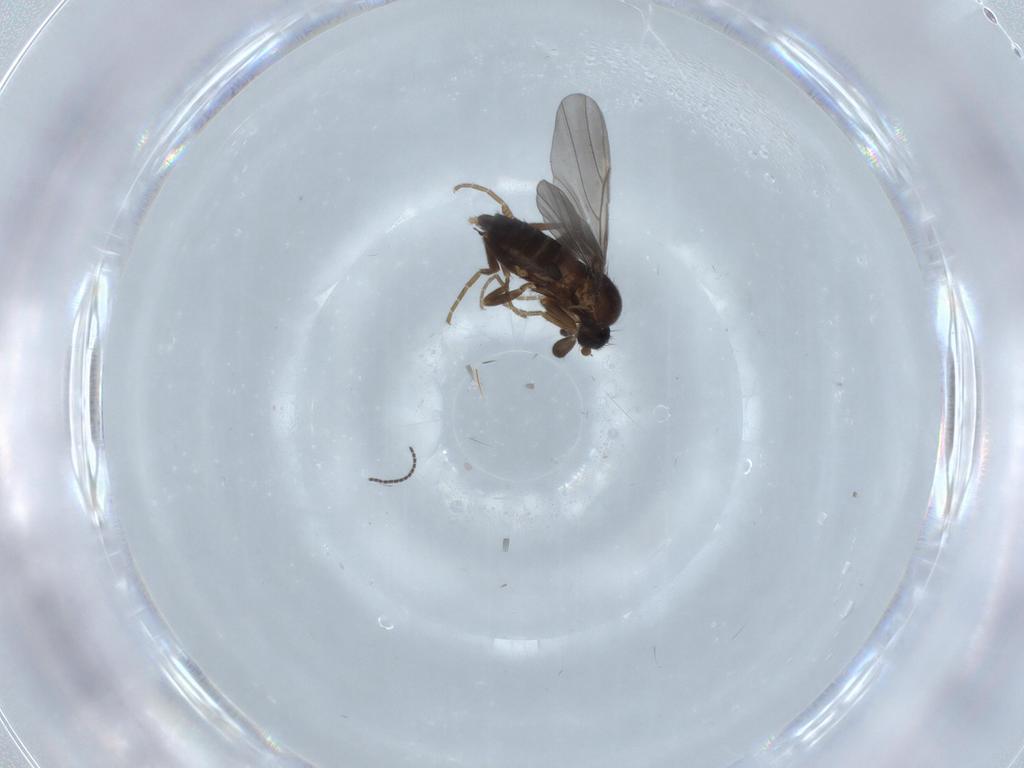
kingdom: Animalia
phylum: Arthropoda
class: Insecta
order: Diptera
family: Phoridae
